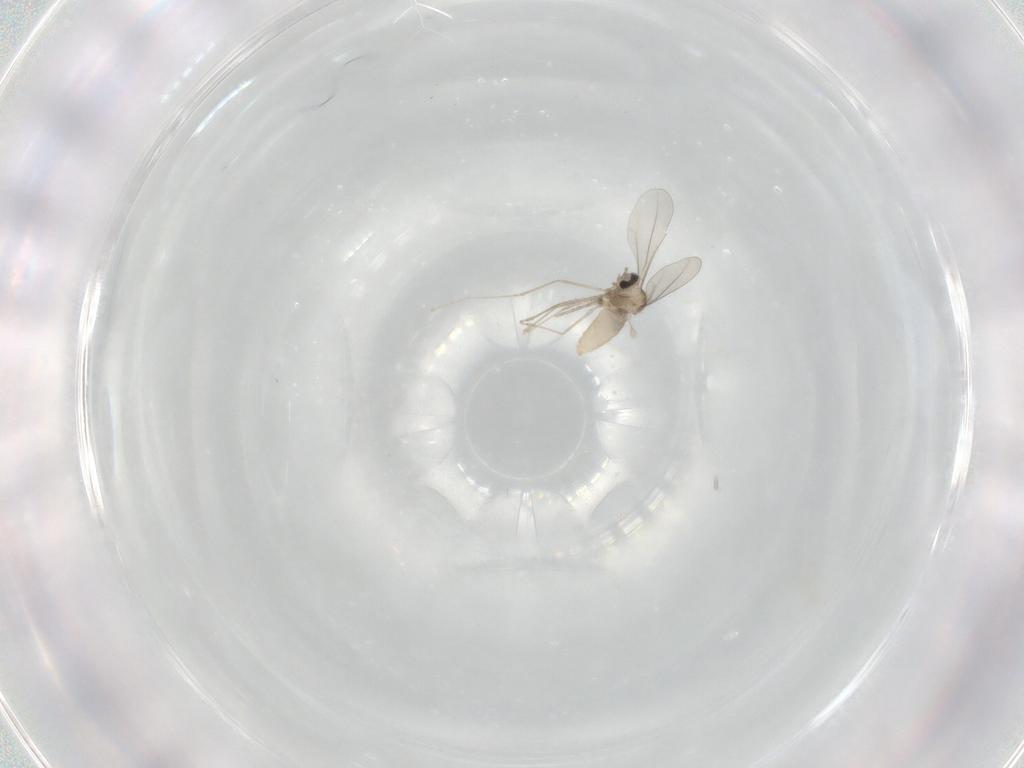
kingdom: Animalia
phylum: Arthropoda
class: Insecta
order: Diptera
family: Cecidomyiidae
